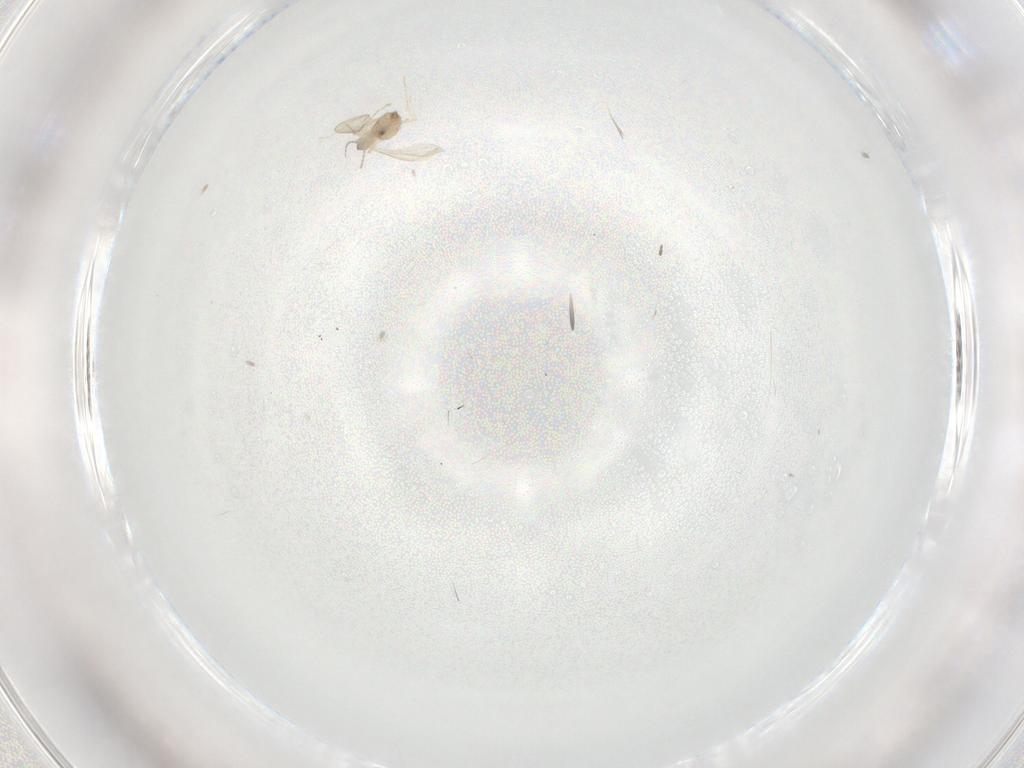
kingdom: Animalia
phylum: Arthropoda
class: Insecta
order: Diptera
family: Cecidomyiidae
